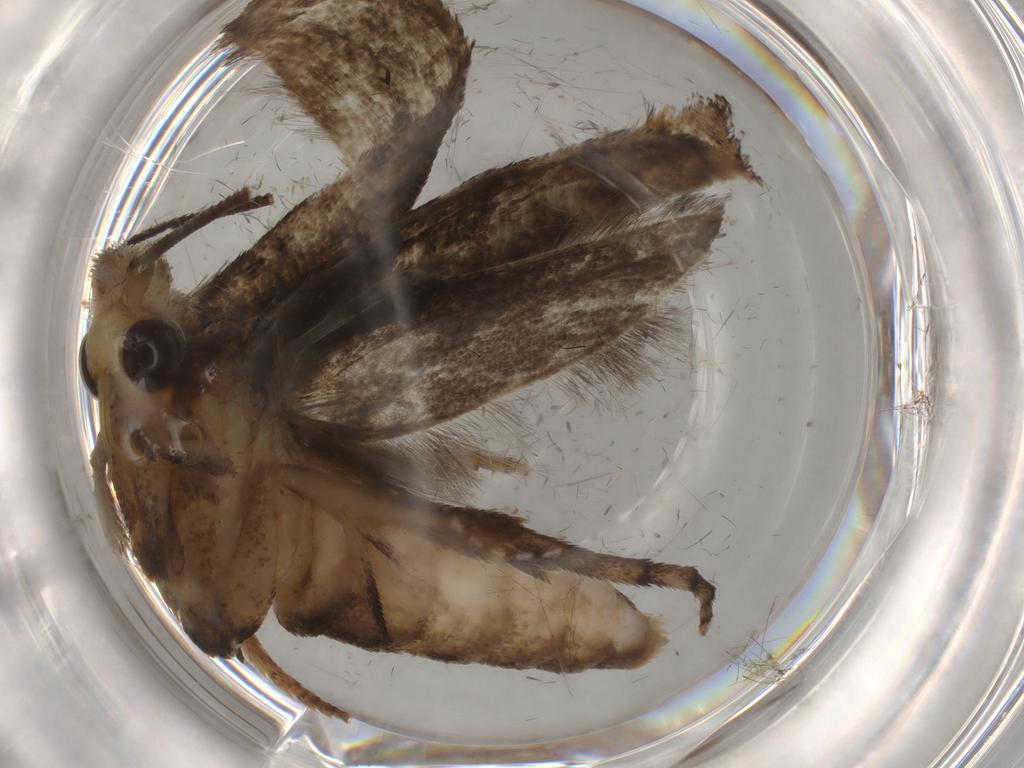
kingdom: Animalia
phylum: Arthropoda
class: Insecta
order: Lepidoptera
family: Yponomeutidae
